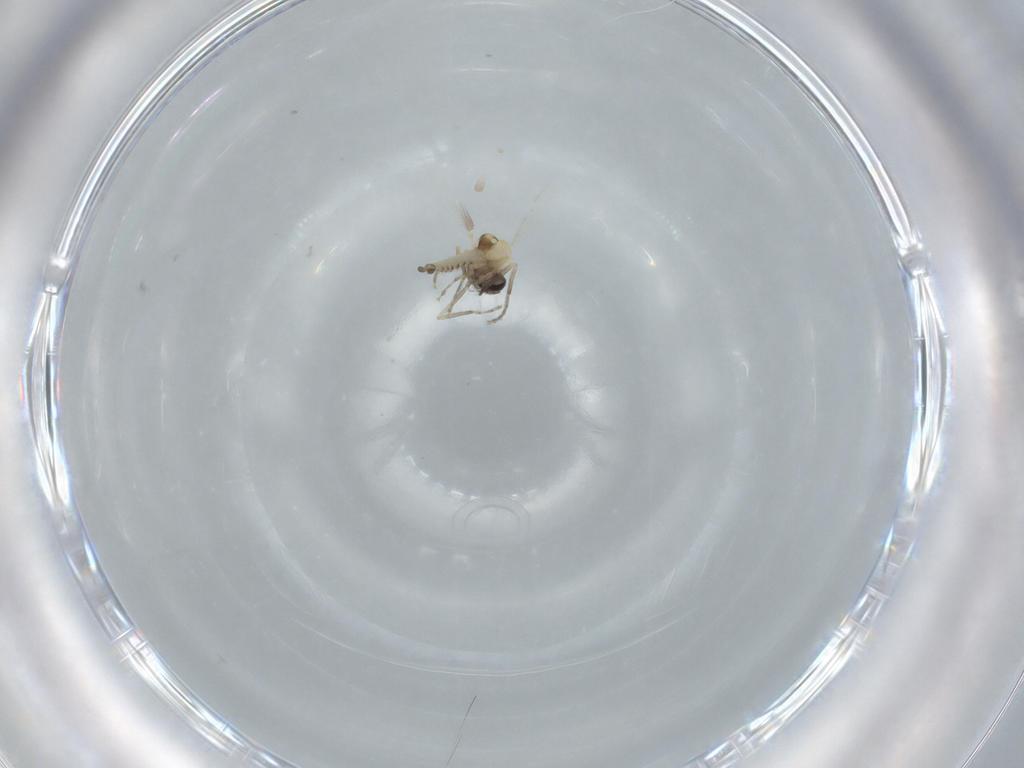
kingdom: Animalia
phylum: Arthropoda
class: Insecta
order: Diptera
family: Ceratopogonidae
